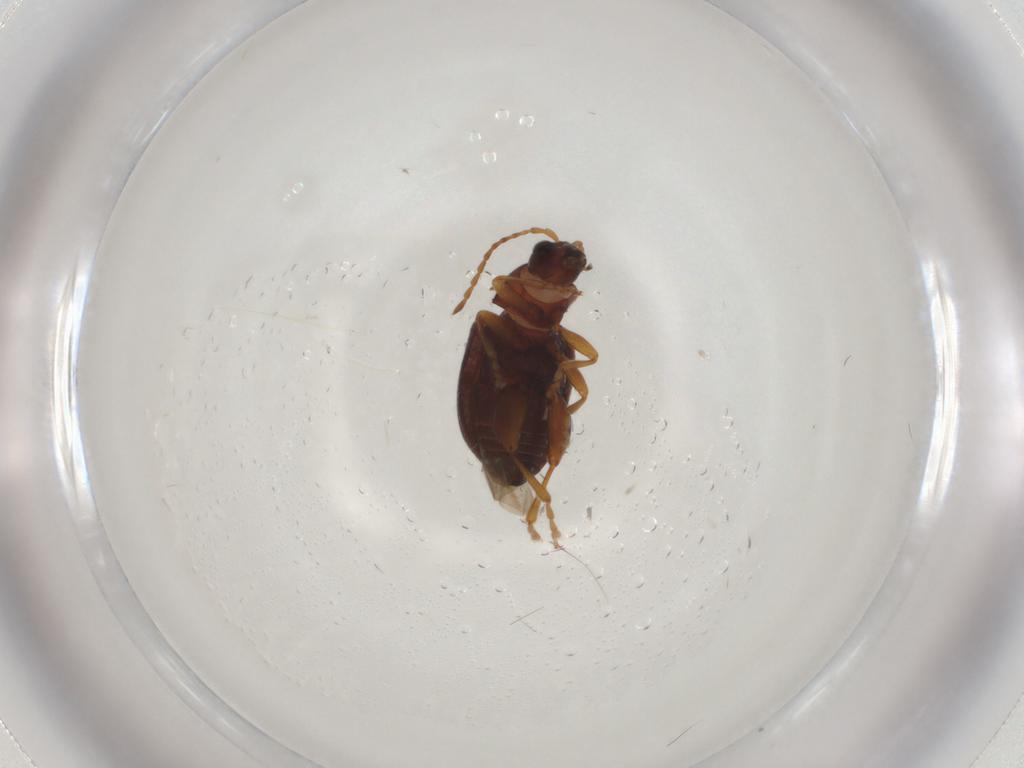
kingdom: Animalia
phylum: Arthropoda
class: Insecta
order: Coleoptera
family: Chrysomelidae
